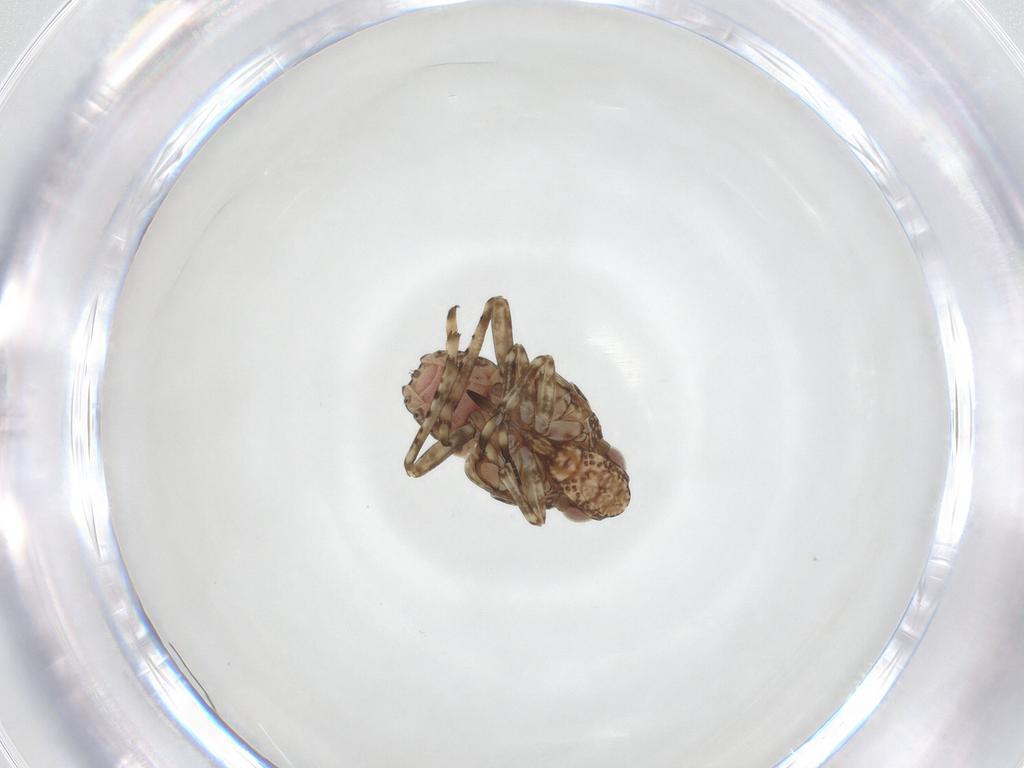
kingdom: Animalia
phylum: Arthropoda
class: Insecta
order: Hemiptera
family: Tropiduchidae
